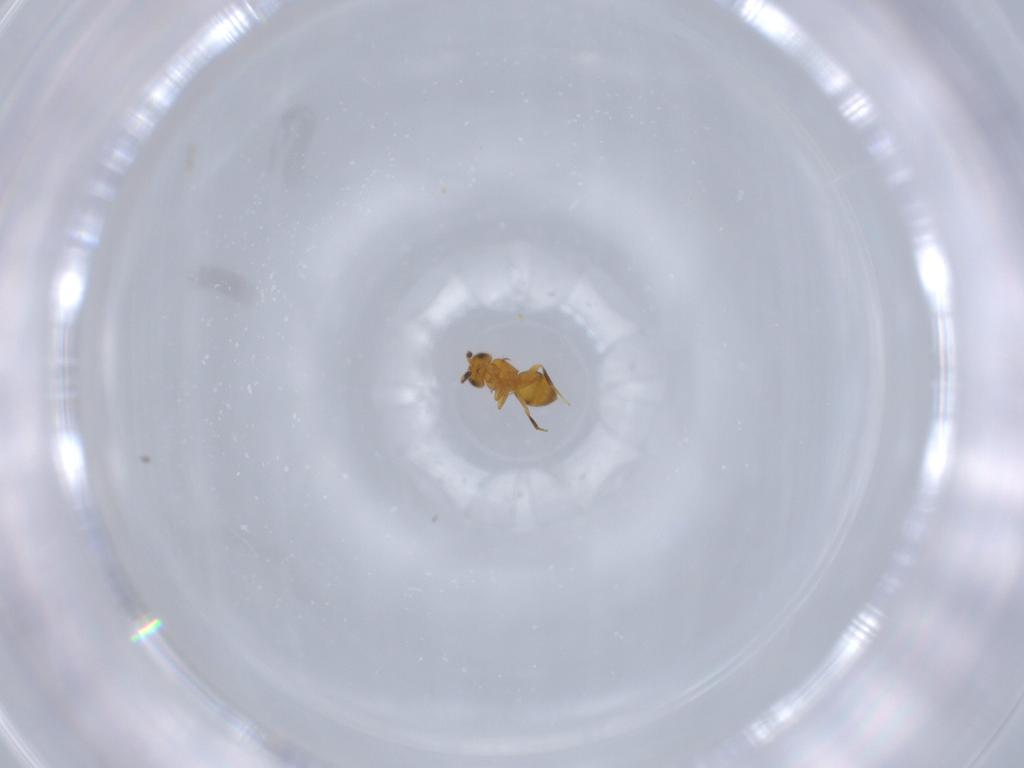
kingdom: Animalia
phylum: Arthropoda
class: Insecta
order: Hymenoptera
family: Scelionidae
